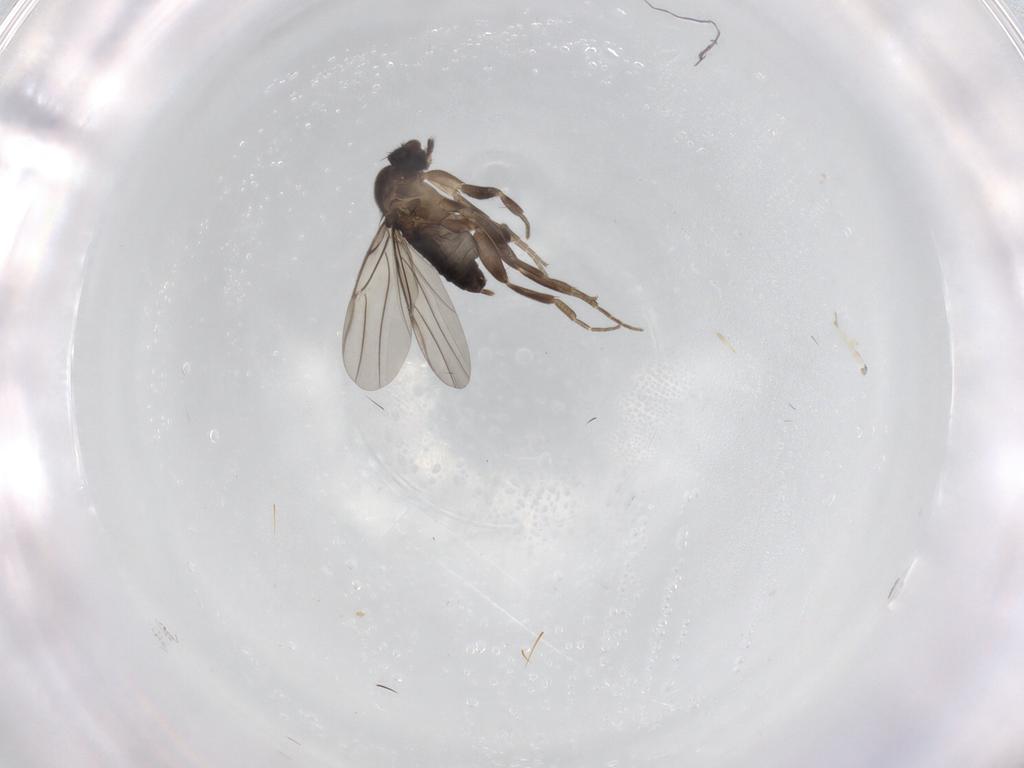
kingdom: Animalia
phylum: Arthropoda
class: Insecta
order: Diptera
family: Phoridae
